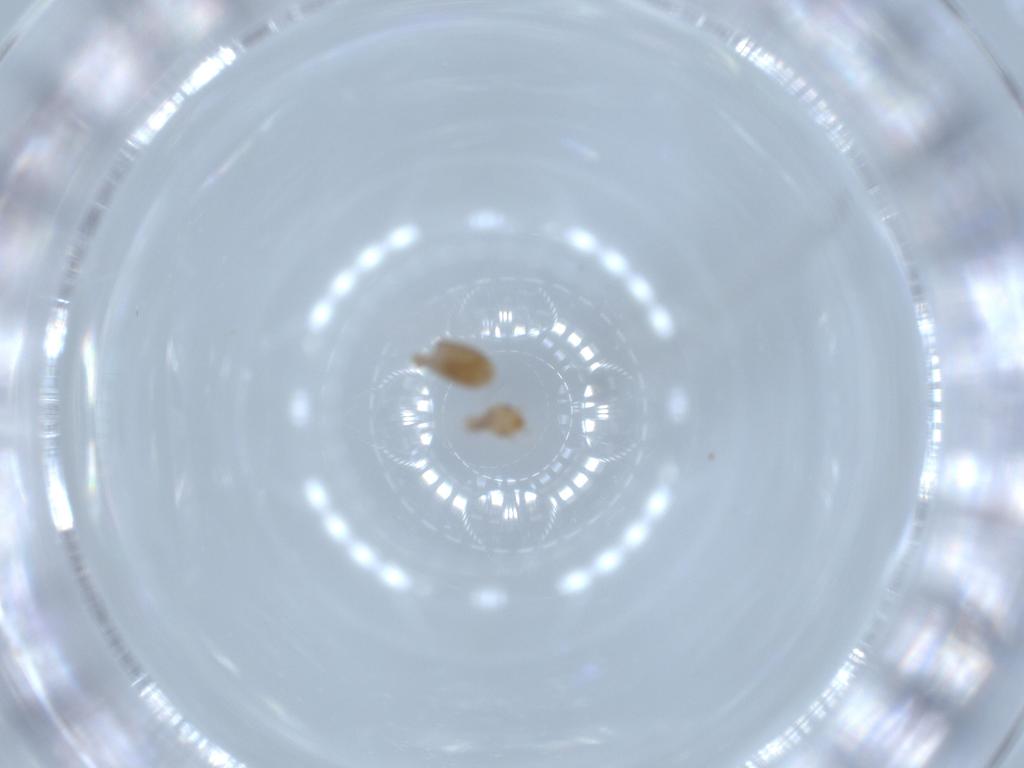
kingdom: Animalia
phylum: Arthropoda
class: Insecta
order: Psocodea
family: Liposcelididae
